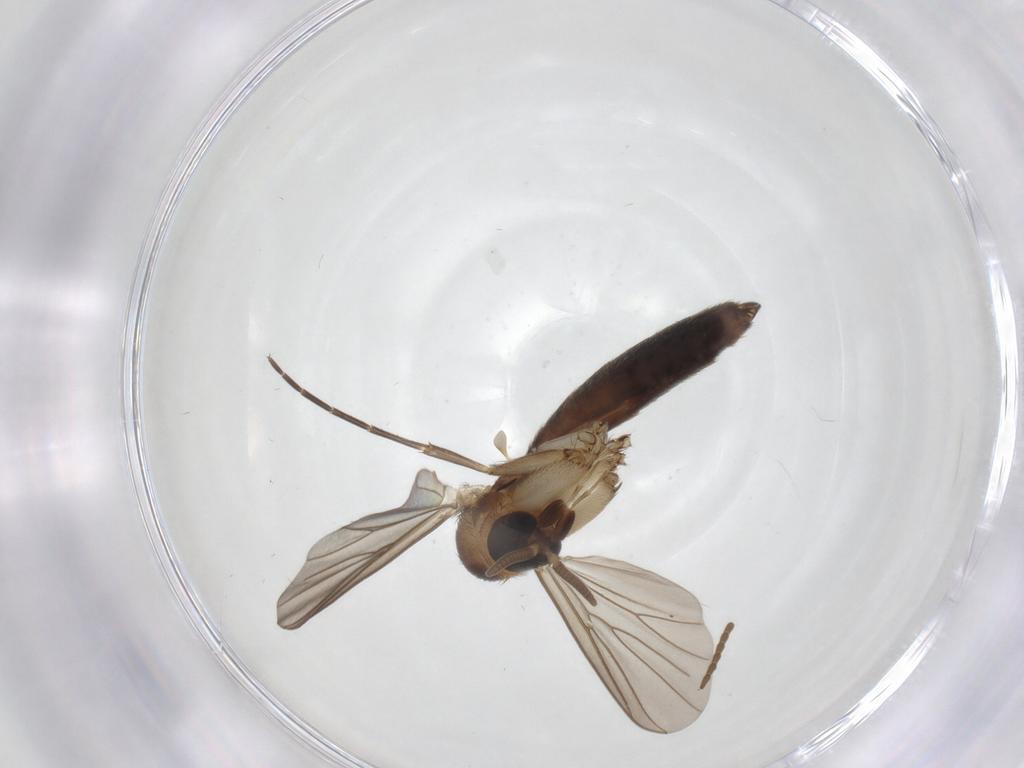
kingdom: Animalia
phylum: Arthropoda
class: Insecta
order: Diptera
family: Mycetophilidae
